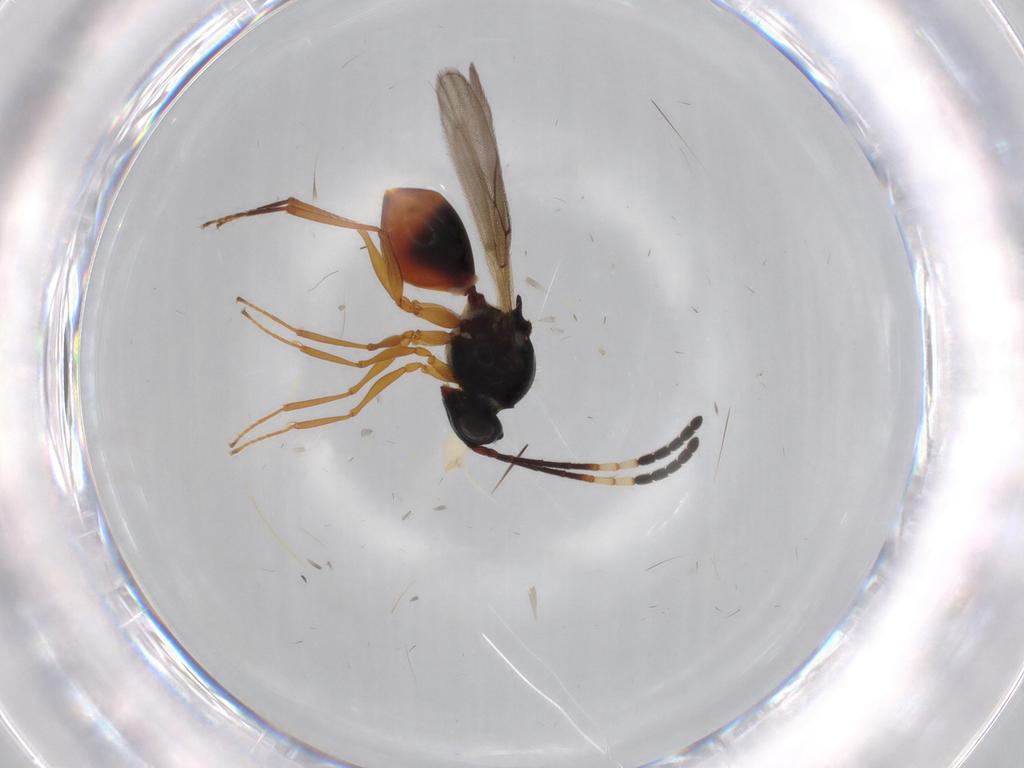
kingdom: Animalia
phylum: Arthropoda
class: Insecta
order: Hymenoptera
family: Figitidae
